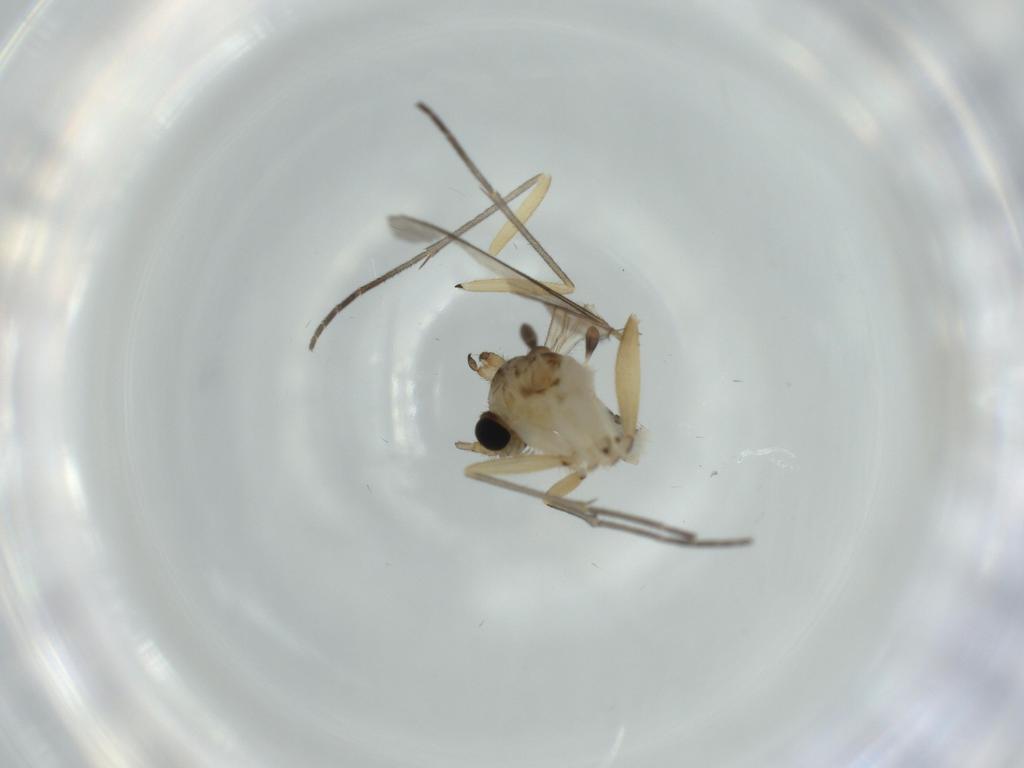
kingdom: Animalia
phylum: Arthropoda
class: Insecta
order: Diptera
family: Sciaridae
